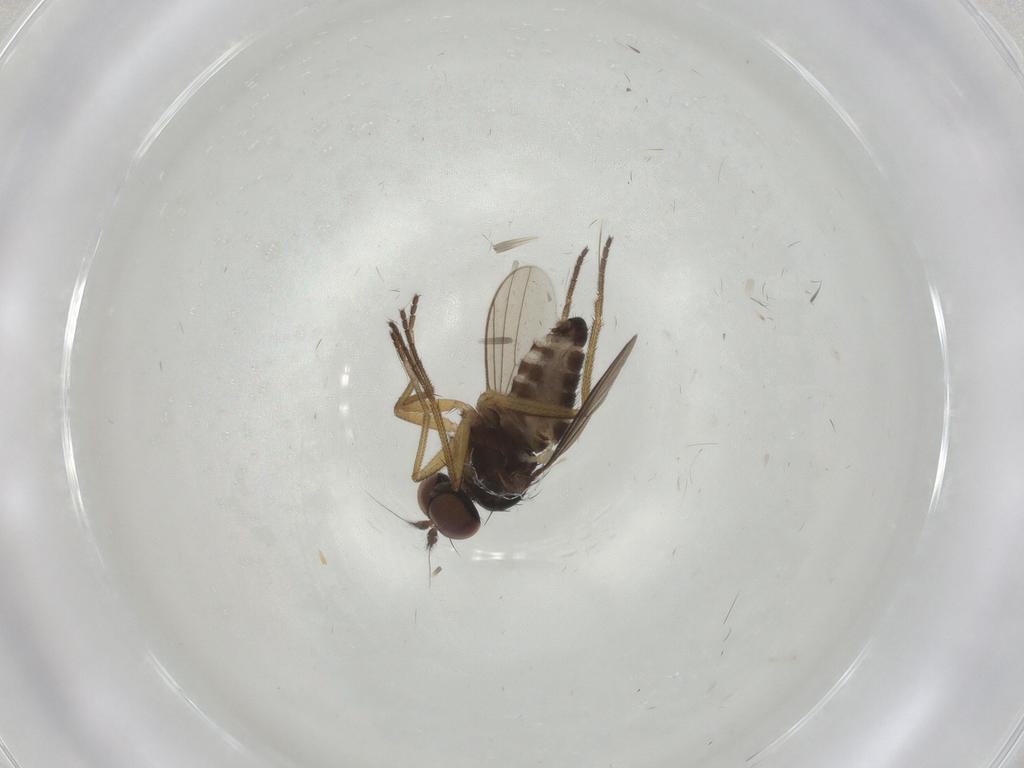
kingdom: Animalia
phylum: Arthropoda
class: Insecta
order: Diptera
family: Dolichopodidae
